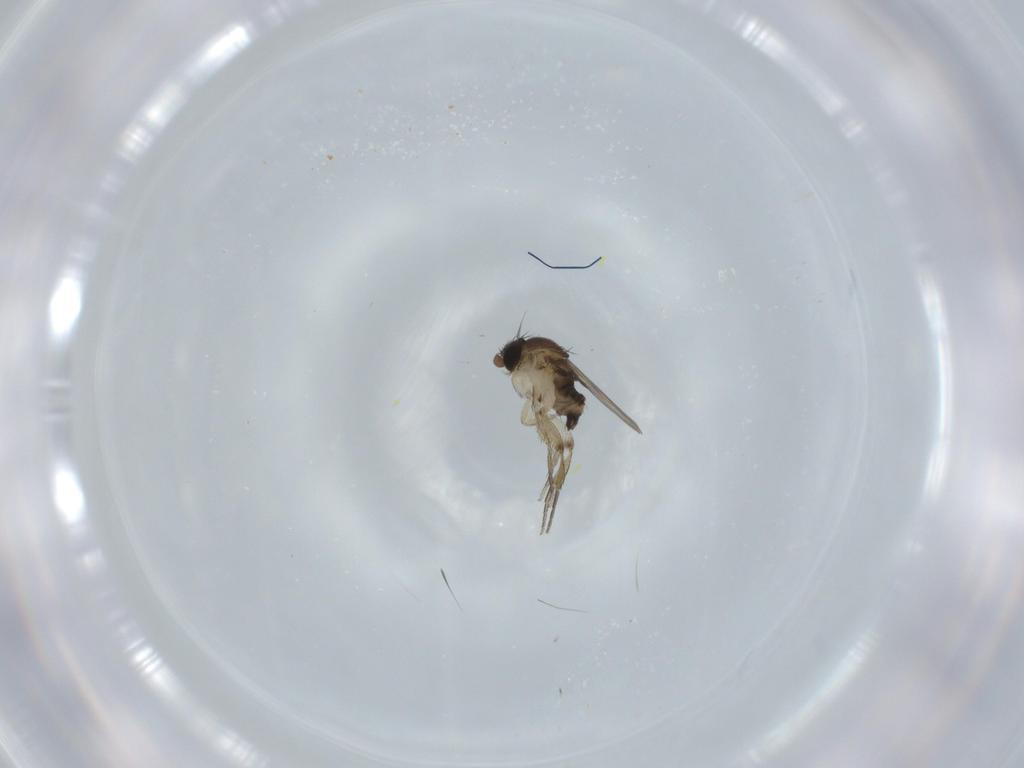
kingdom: Animalia
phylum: Arthropoda
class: Insecta
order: Diptera
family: Phoridae
